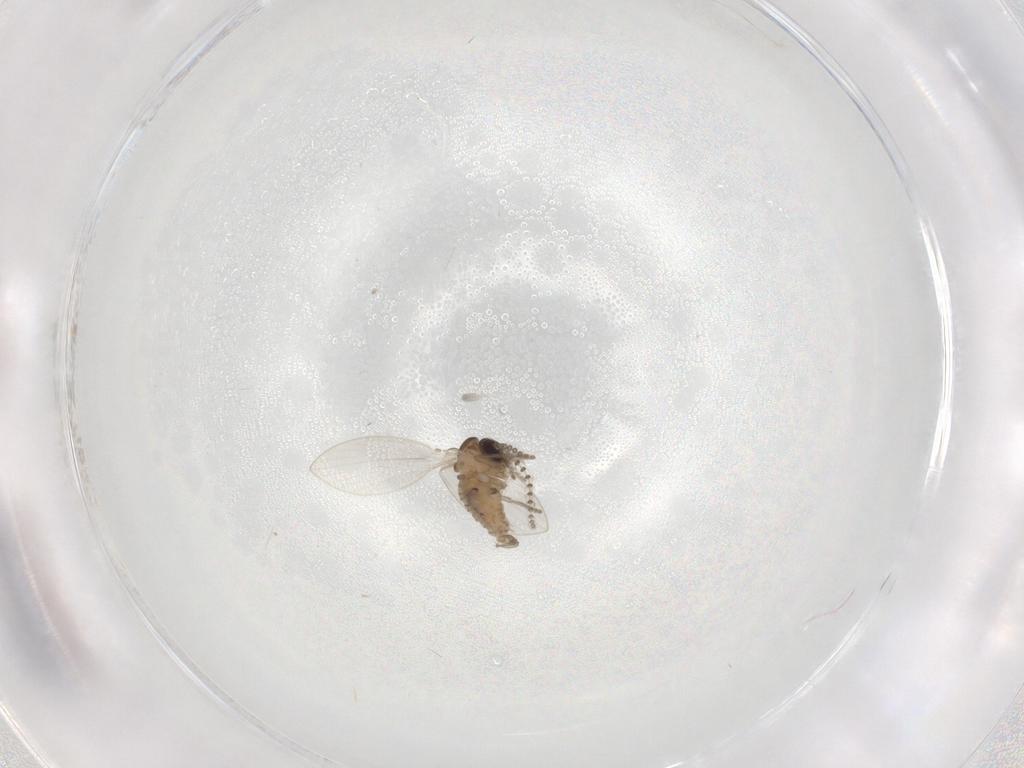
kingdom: Animalia
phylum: Arthropoda
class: Insecta
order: Diptera
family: Psychodidae
